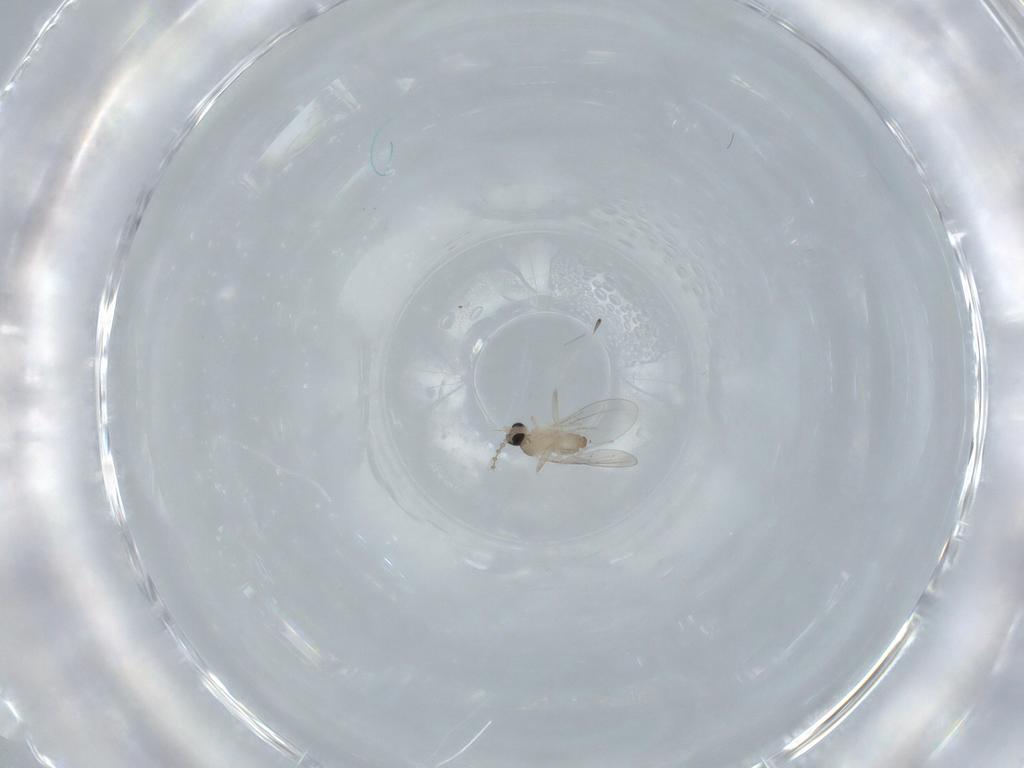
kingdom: Animalia
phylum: Arthropoda
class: Insecta
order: Diptera
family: Cecidomyiidae
